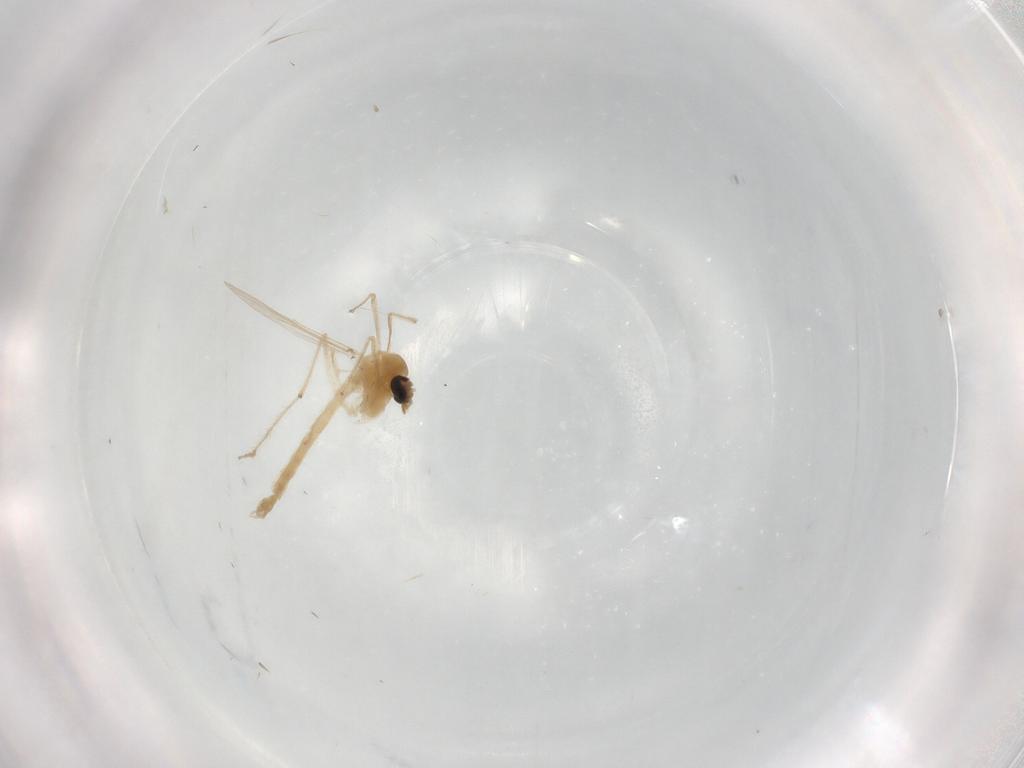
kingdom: Animalia
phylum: Arthropoda
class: Insecta
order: Diptera
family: Chironomidae
